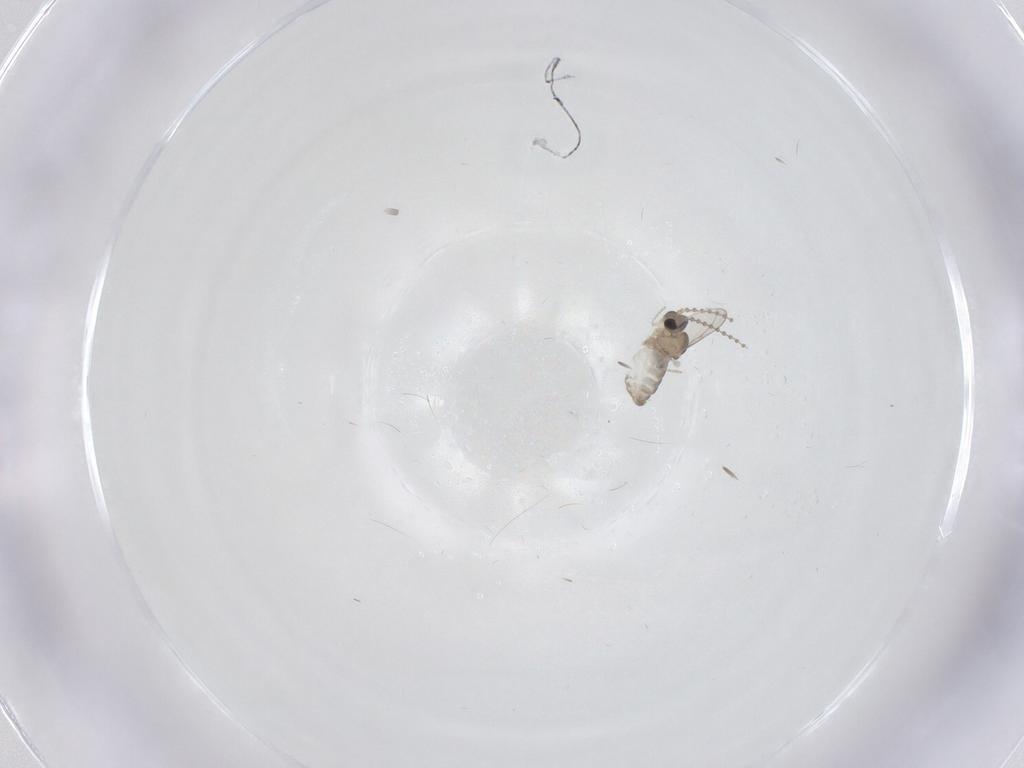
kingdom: Animalia
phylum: Arthropoda
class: Insecta
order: Diptera
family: Cecidomyiidae
